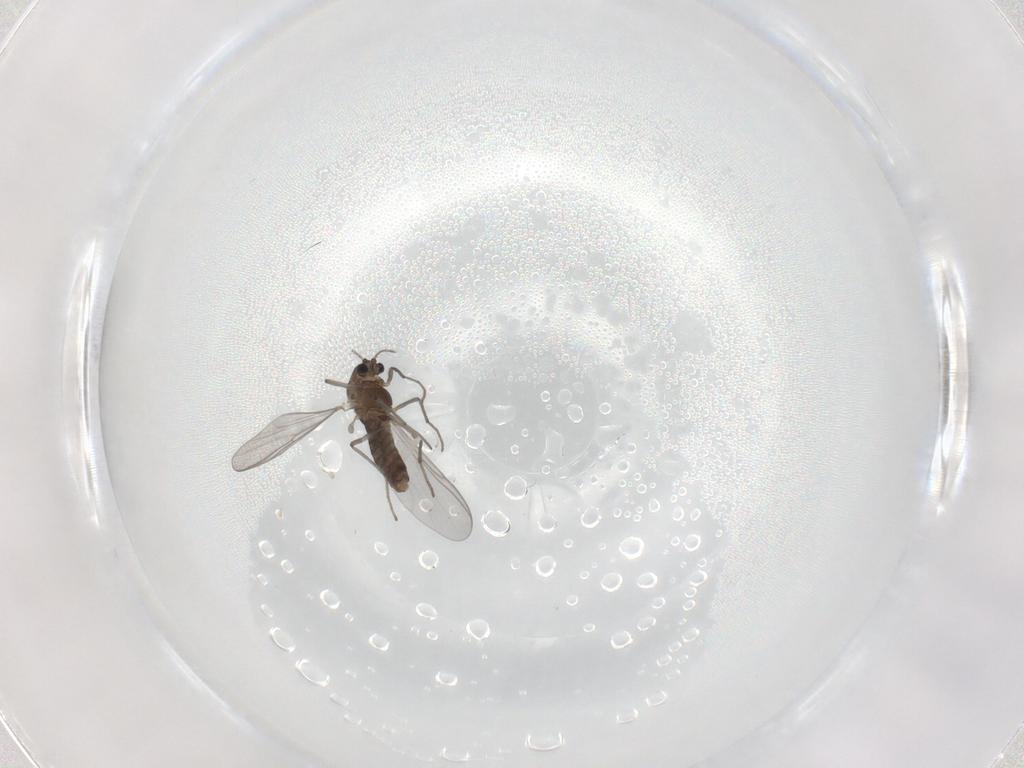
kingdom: Animalia
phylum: Arthropoda
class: Insecta
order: Diptera
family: Chironomidae
